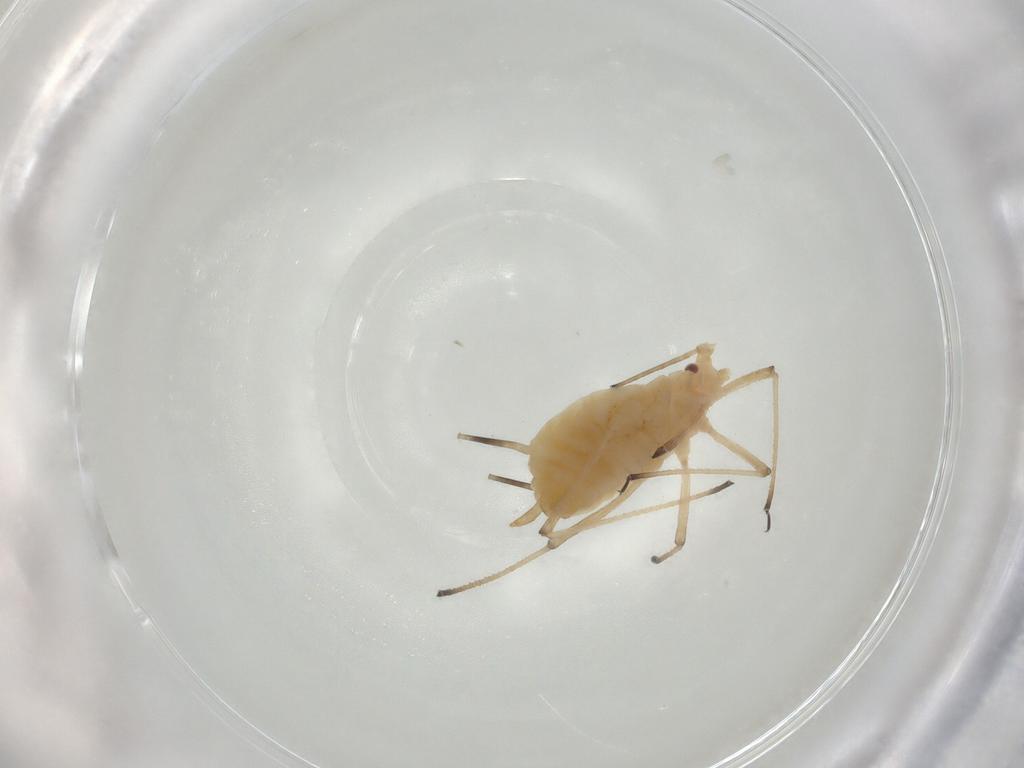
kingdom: Animalia
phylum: Arthropoda
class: Insecta
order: Hemiptera
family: Aphididae
